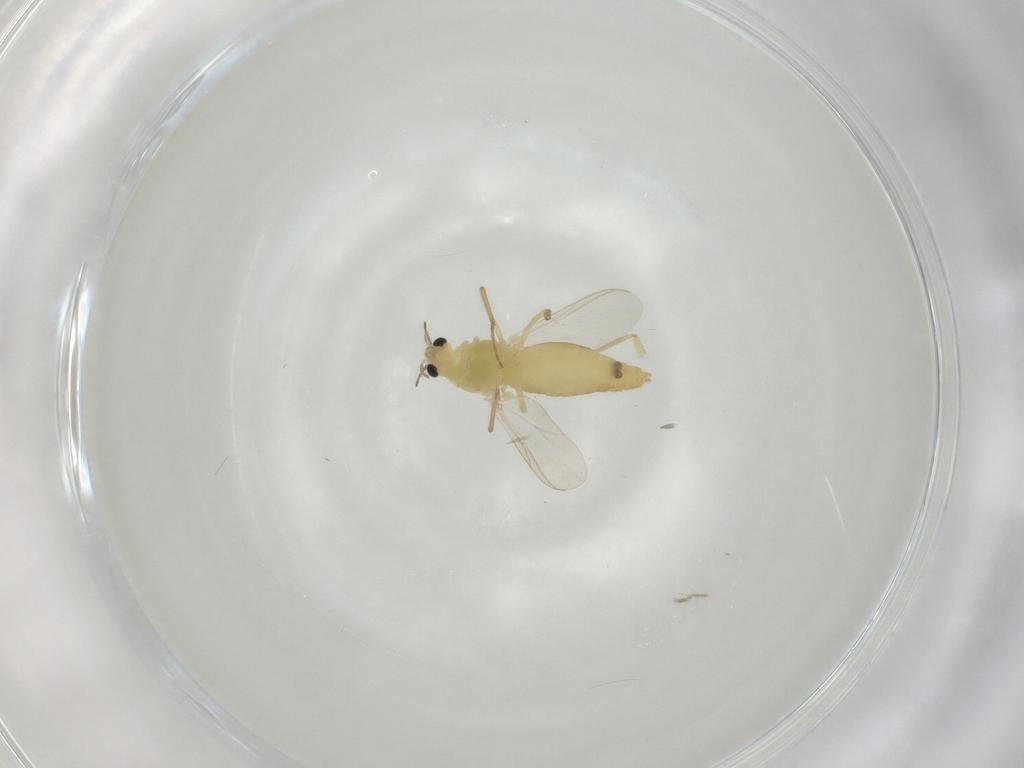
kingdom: Animalia
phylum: Arthropoda
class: Insecta
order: Diptera
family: Chironomidae
